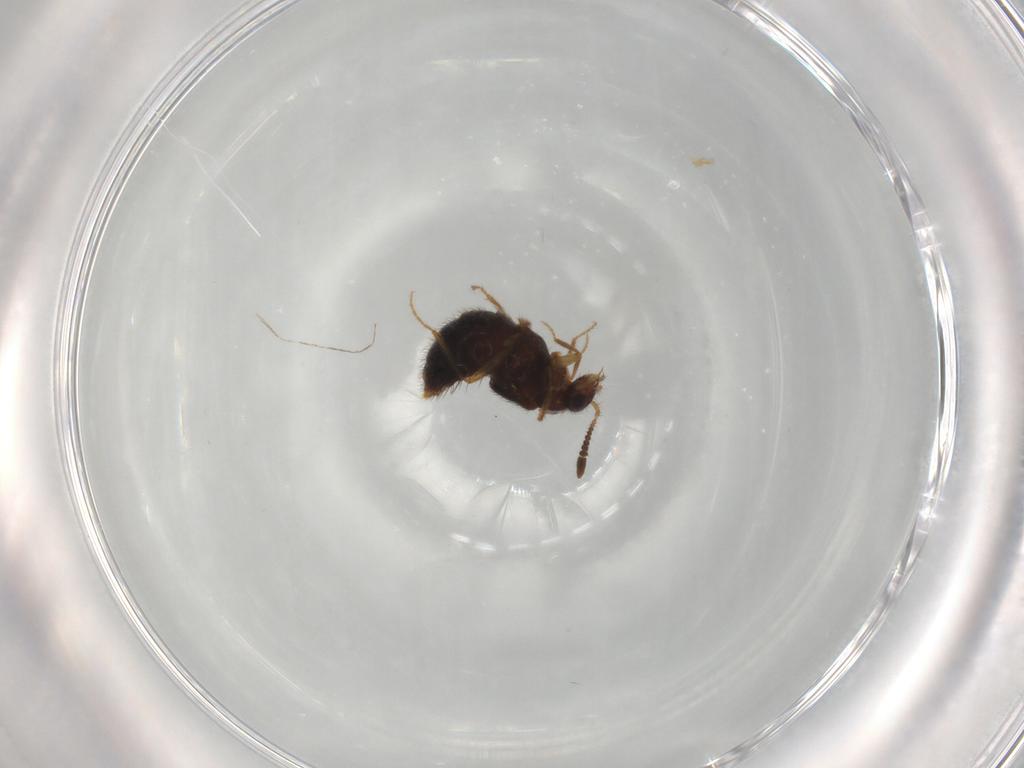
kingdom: Animalia
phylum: Arthropoda
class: Insecta
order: Coleoptera
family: Staphylinidae
